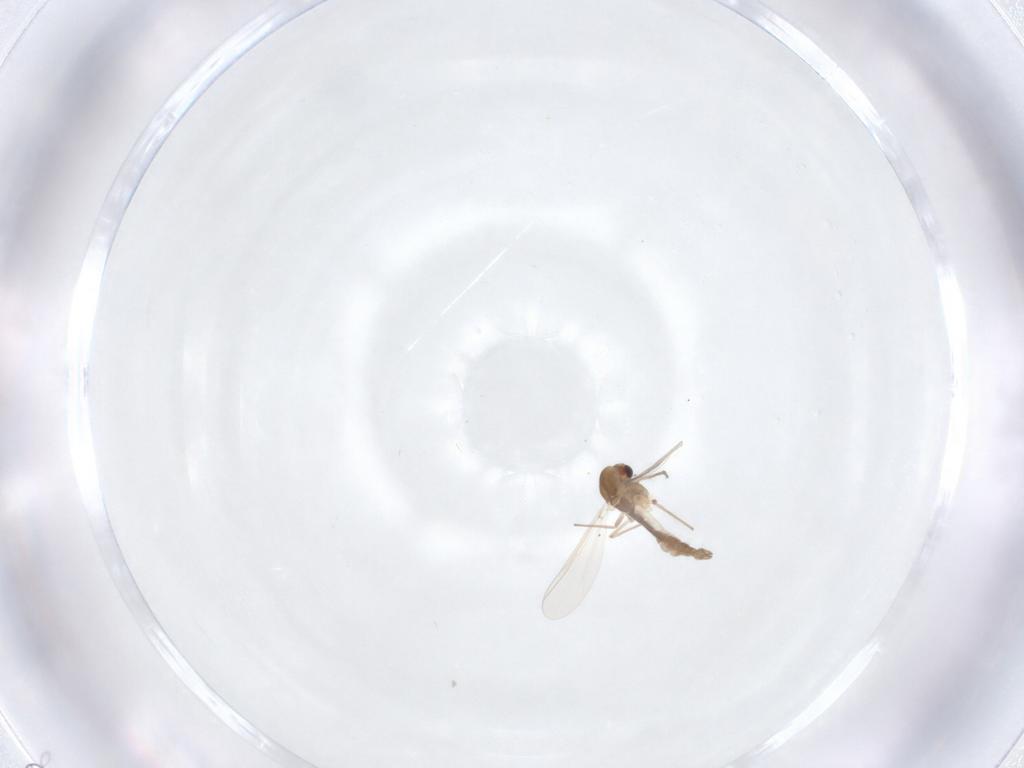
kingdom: Animalia
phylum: Arthropoda
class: Insecta
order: Diptera
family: Chironomidae
